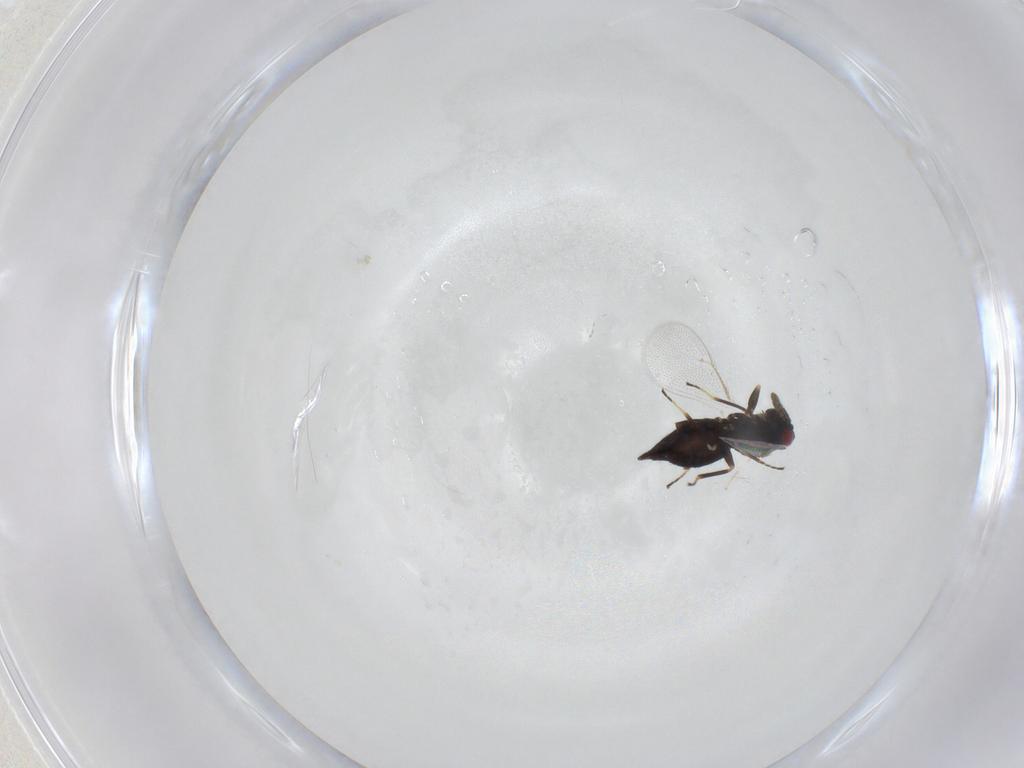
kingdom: Animalia
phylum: Arthropoda
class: Insecta
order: Hymenoptera
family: Eulophidae
